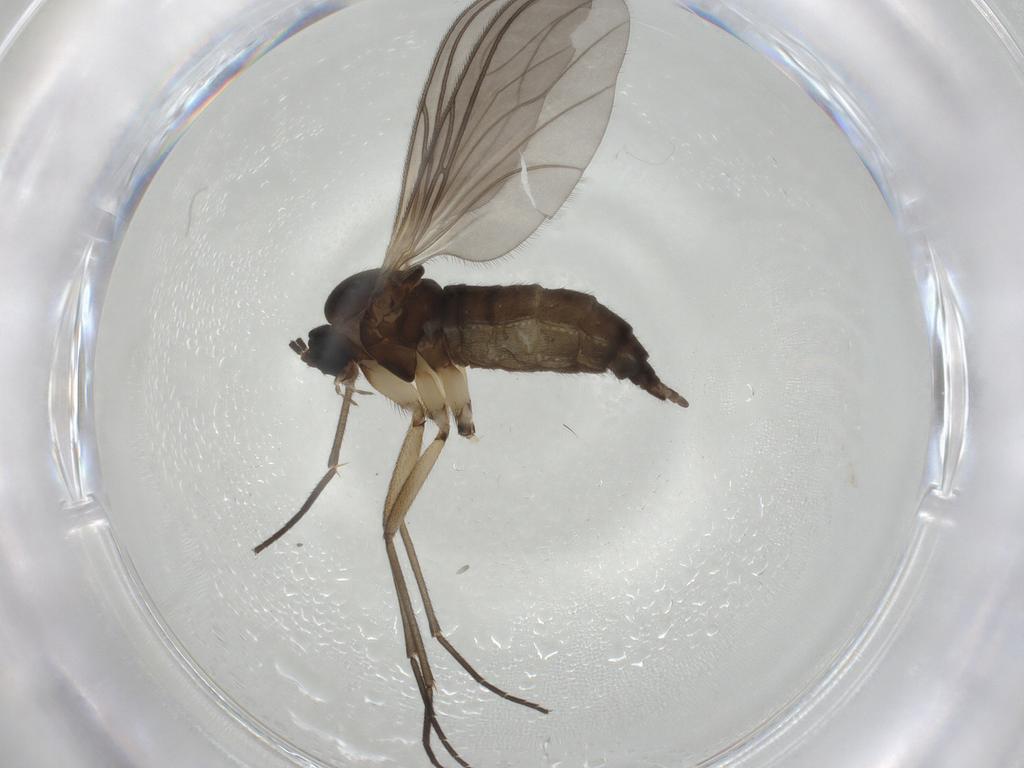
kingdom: Animalia
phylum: Arthropoda
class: Insecta
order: Diptera
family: Sciaridae
